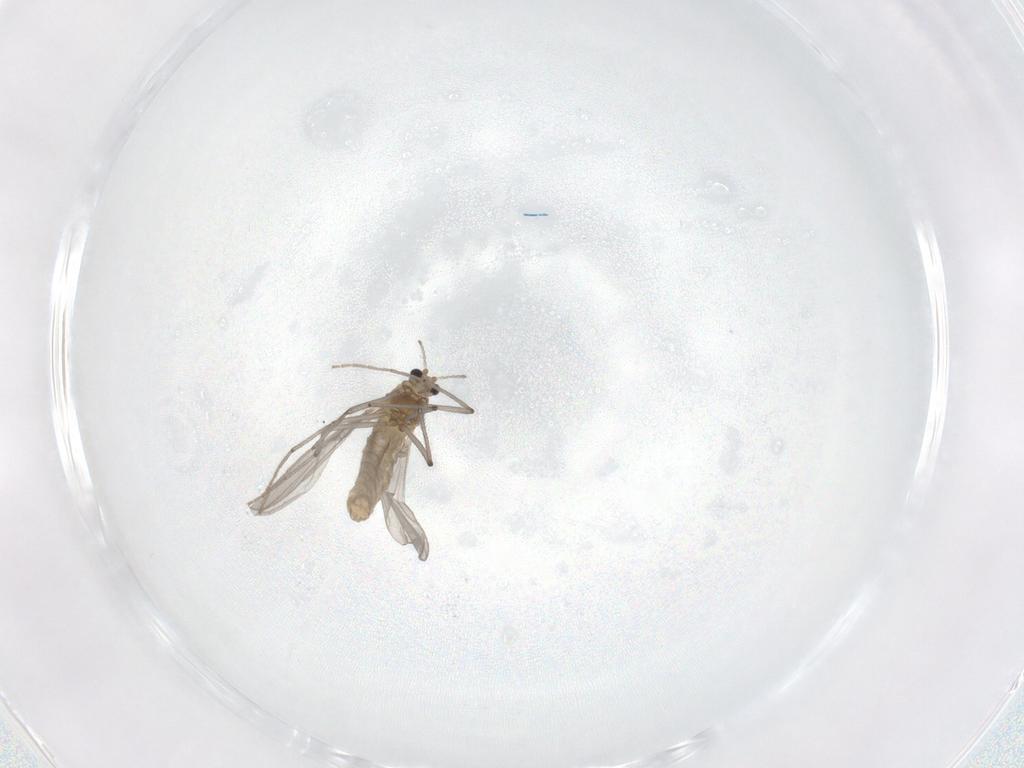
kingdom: Animalia
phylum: Arthropoda
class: Insecta
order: Diptera
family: Chironomidae
